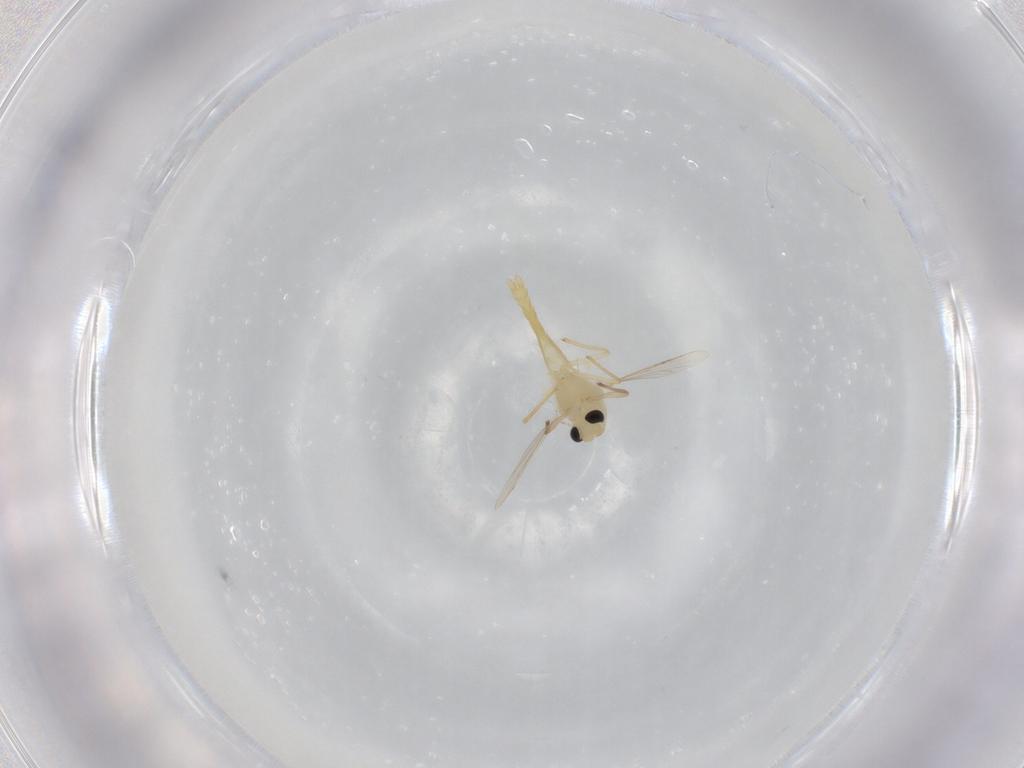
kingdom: Animalia
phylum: Arthropoda
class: Insecta
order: Diptera
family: Chironomidae
